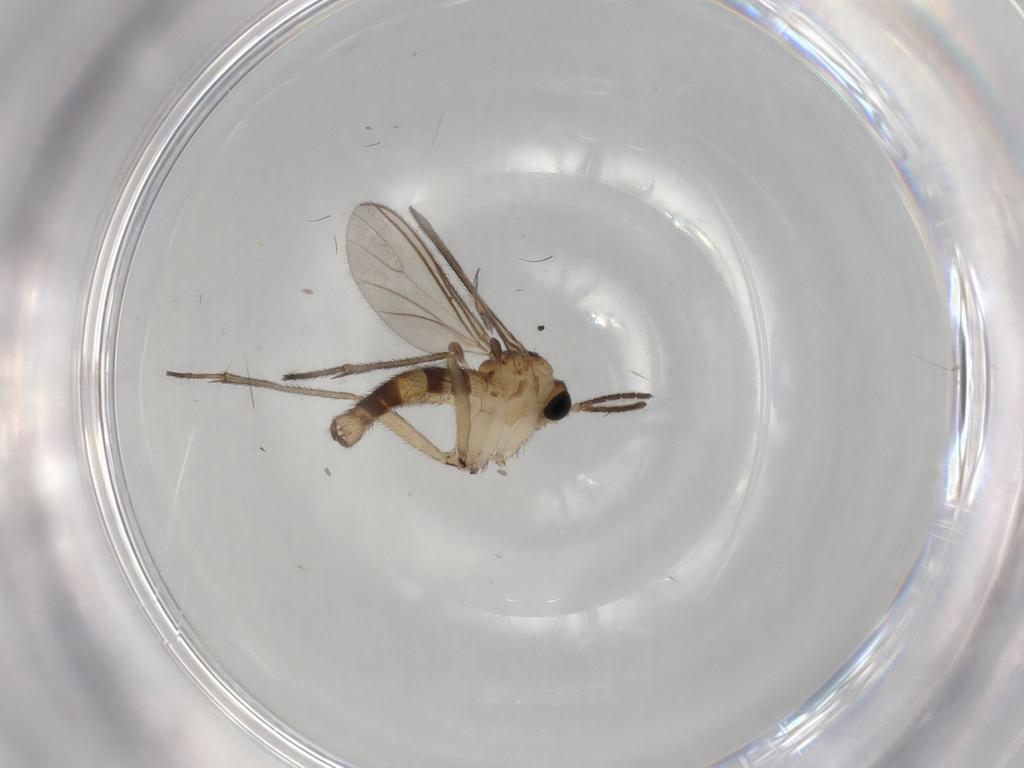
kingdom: Animalia
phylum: Arthropoda
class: Insecta
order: Diptera
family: Sciaridae
